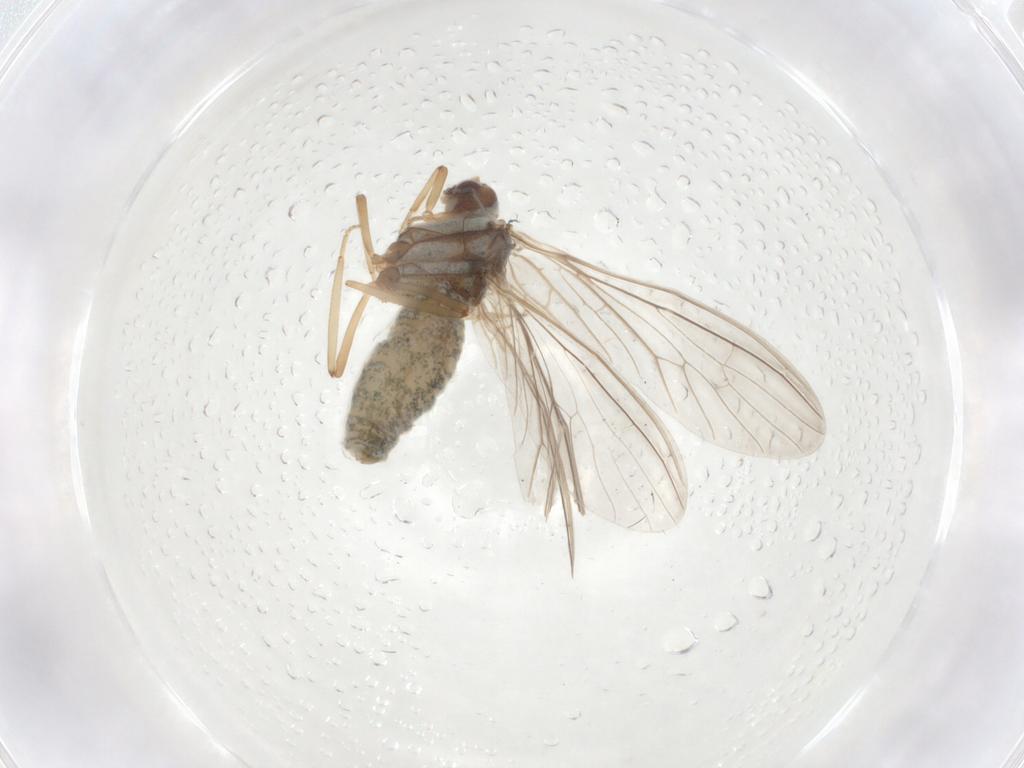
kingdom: Animalia
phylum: Arthropoda
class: Insecta
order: Neuroptera
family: Coniopterygidae
